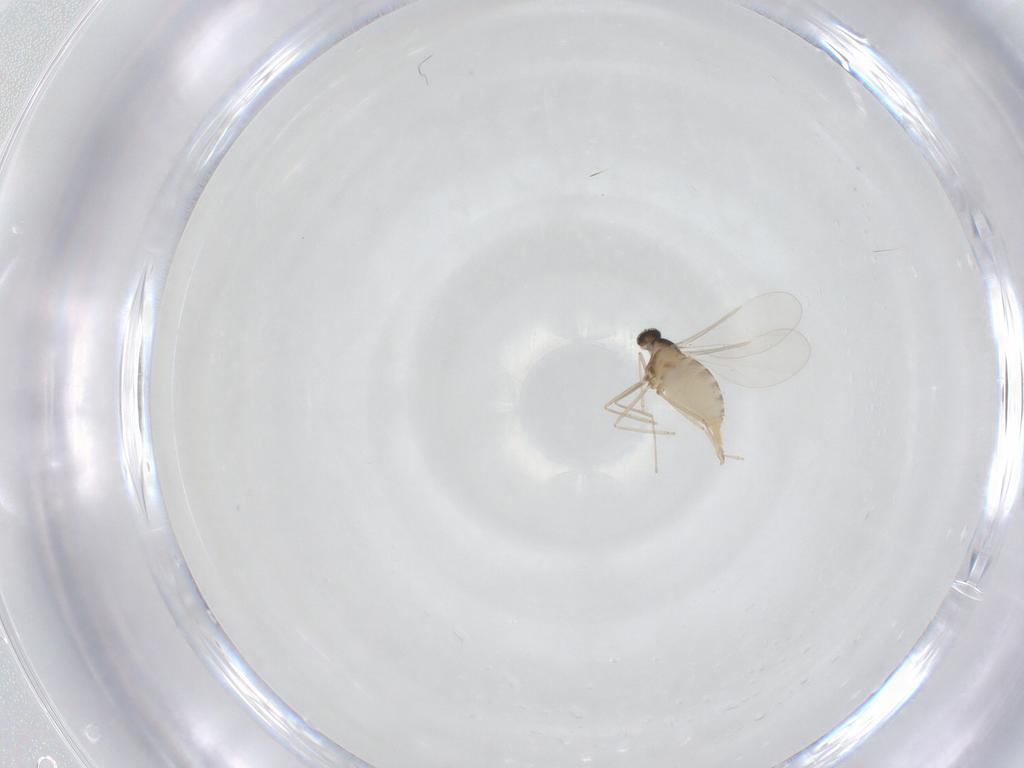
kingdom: Animalia
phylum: Arthropoda
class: Insecta
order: Diptera
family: Cecidomyiidae
